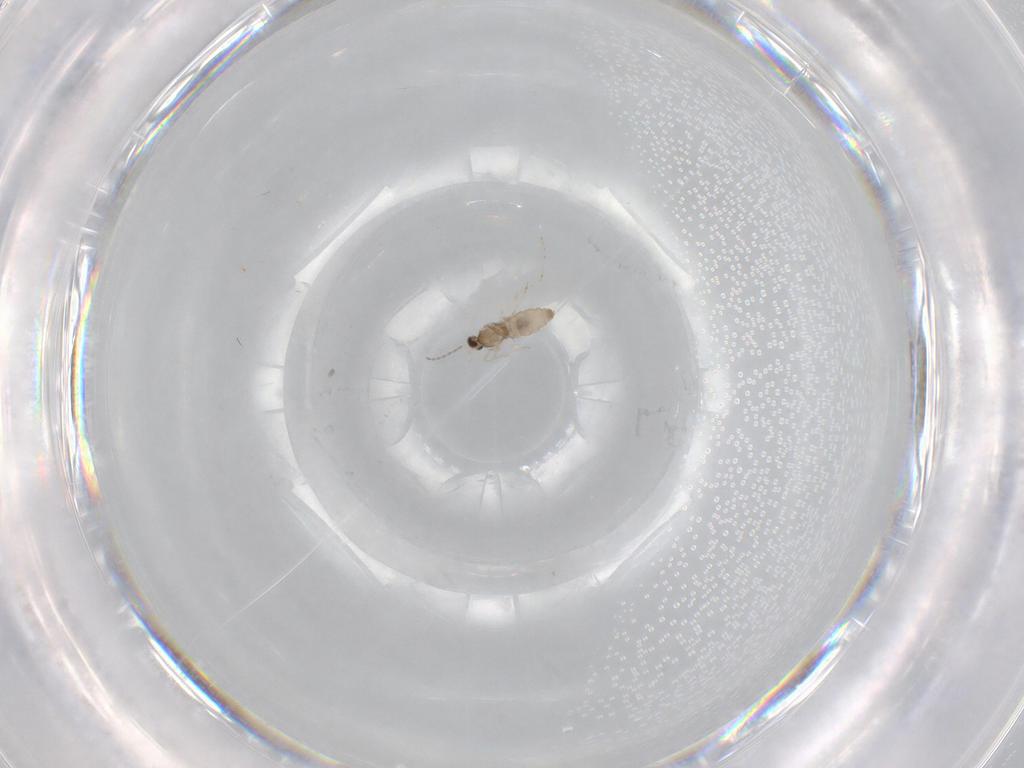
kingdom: Animalia
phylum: Arthropoda
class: Insecta
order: Diptera
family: Cecidomyiidae
